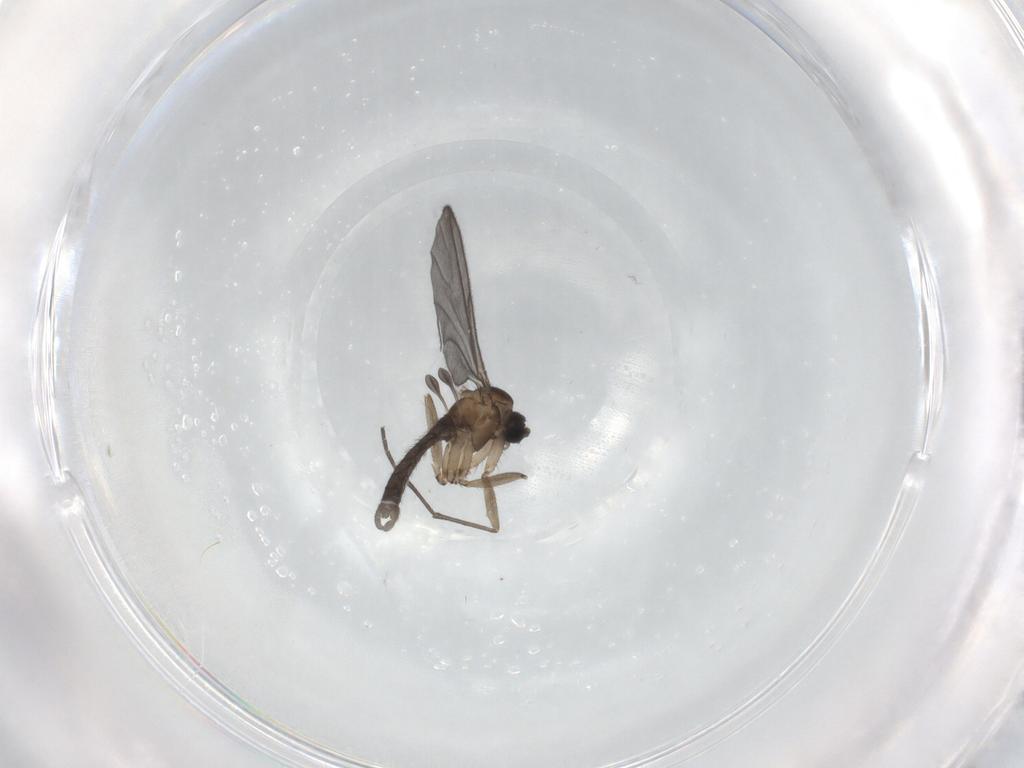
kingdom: Animalia
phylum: Arthropoda
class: Insecta
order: Diptera
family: Sciaridae
